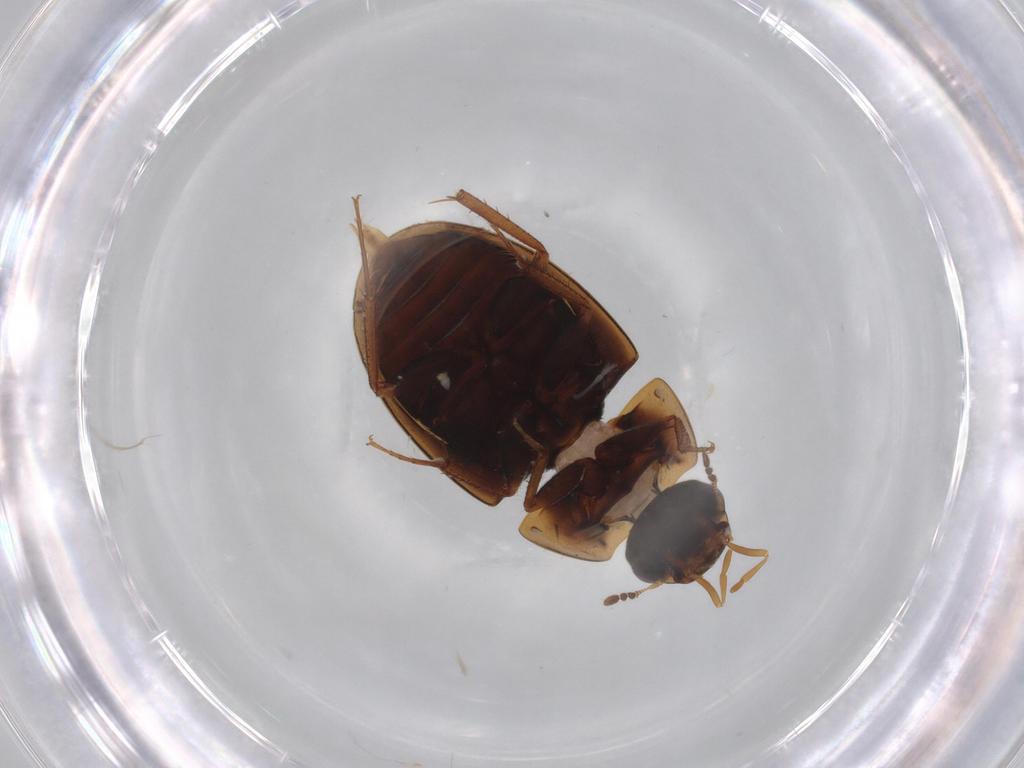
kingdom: Animalia
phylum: Arthropoda
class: Insecta
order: Coleoptera
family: Hydrophilidae
